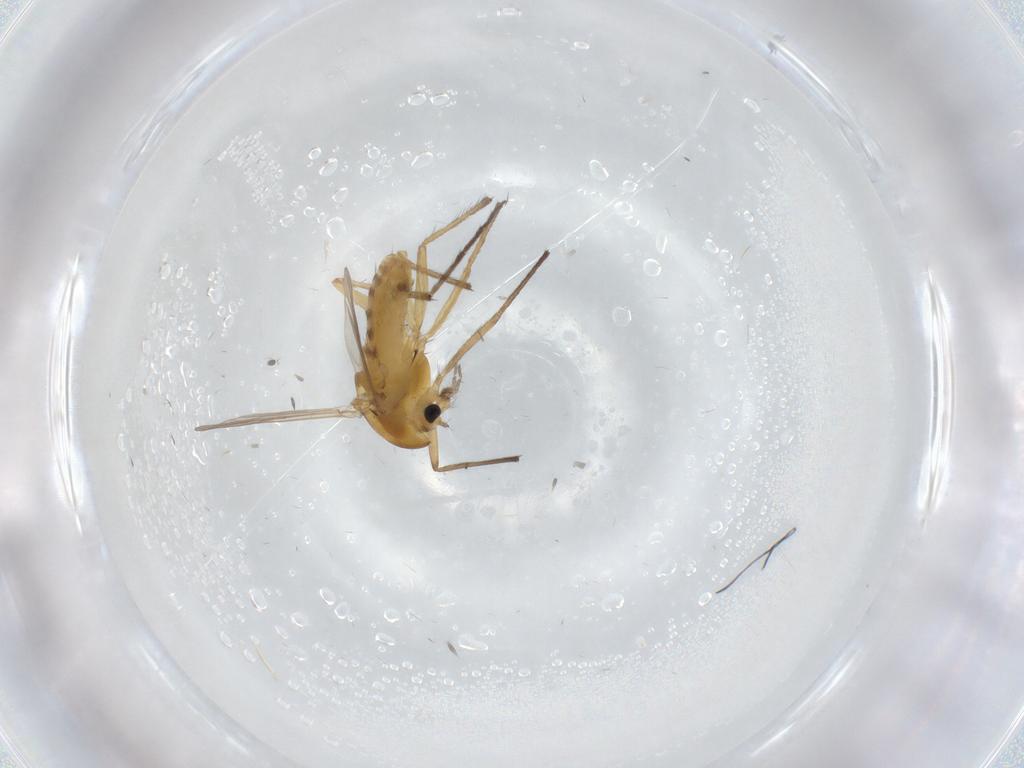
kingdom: Animalia
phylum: Arthropoda
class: Insecta
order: Diptera
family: Chironomidae
